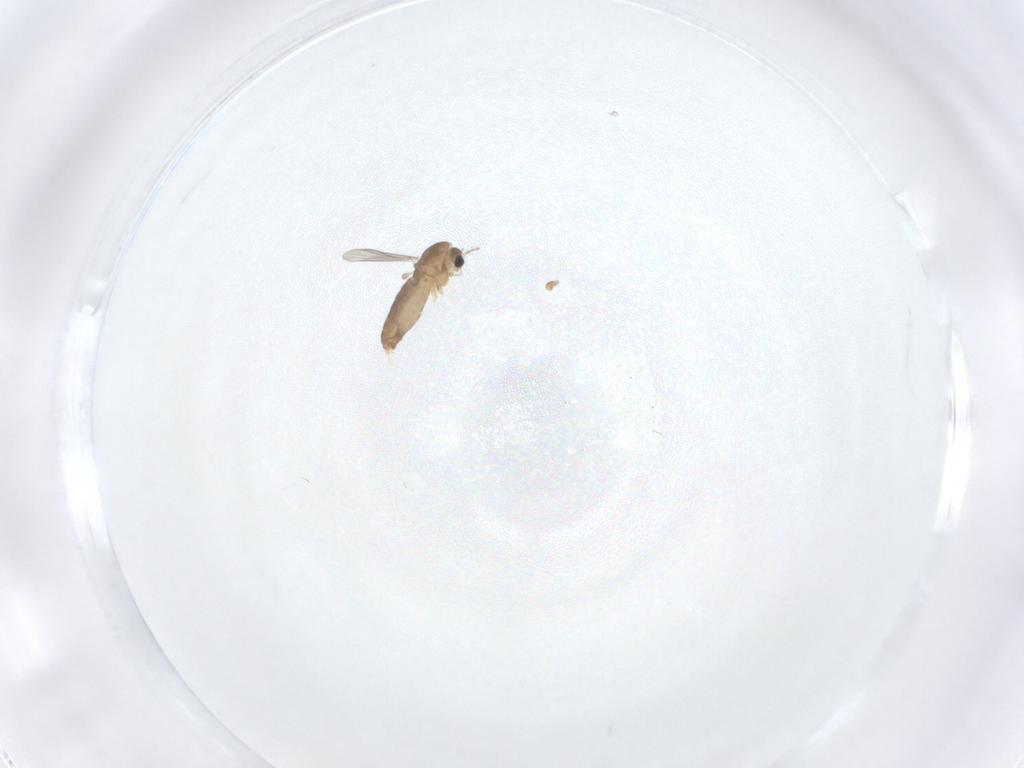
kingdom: Animalia
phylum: Arthropoda
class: Insecta
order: Diptera
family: Chironomidae
